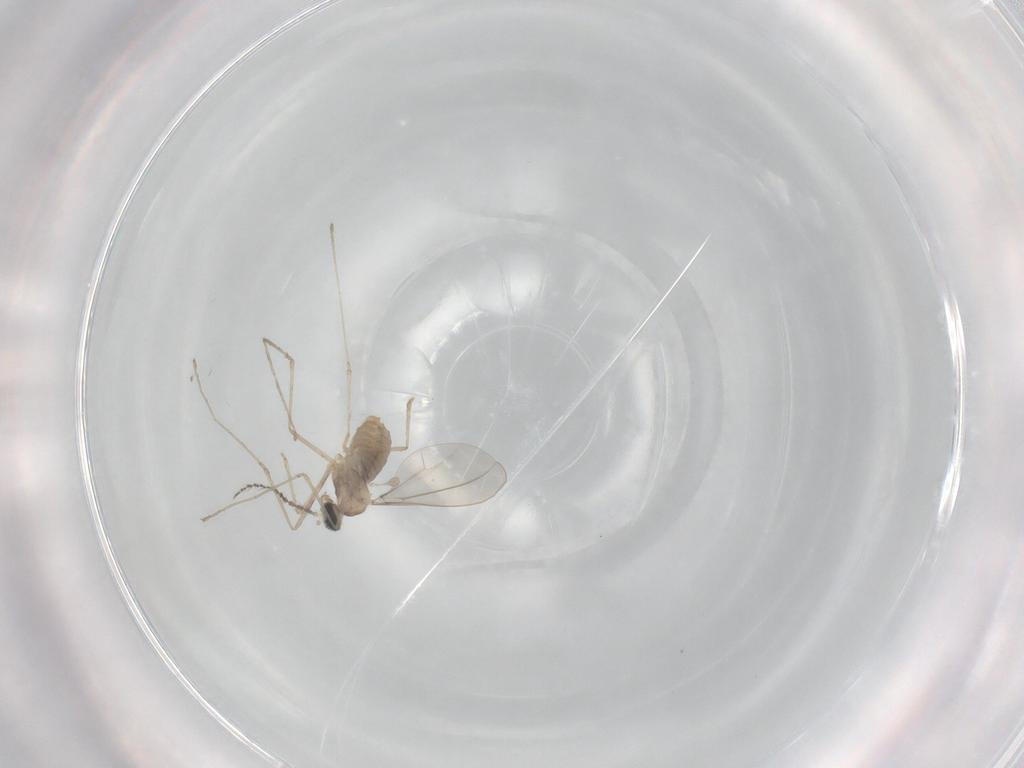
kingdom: Animalia
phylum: Arthropoda
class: Insecta
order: Diptera
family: Cecidomyiidae
